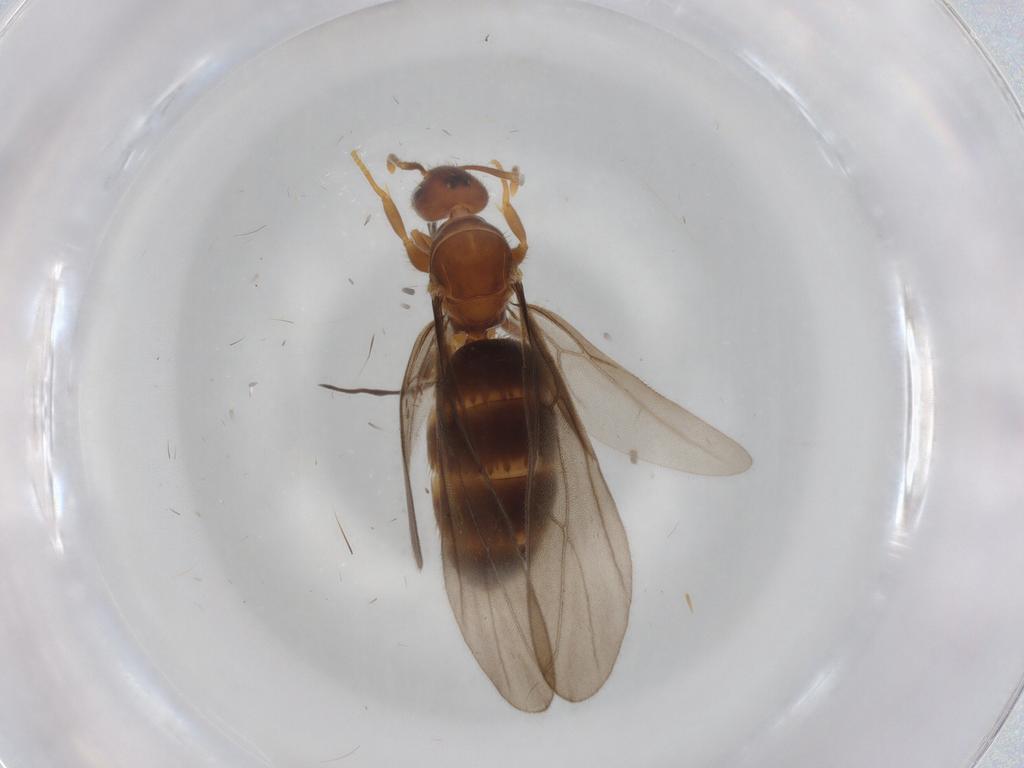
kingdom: Animalia
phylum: Arthropoda
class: Insecta
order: Hymenoptera
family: Formicidae
